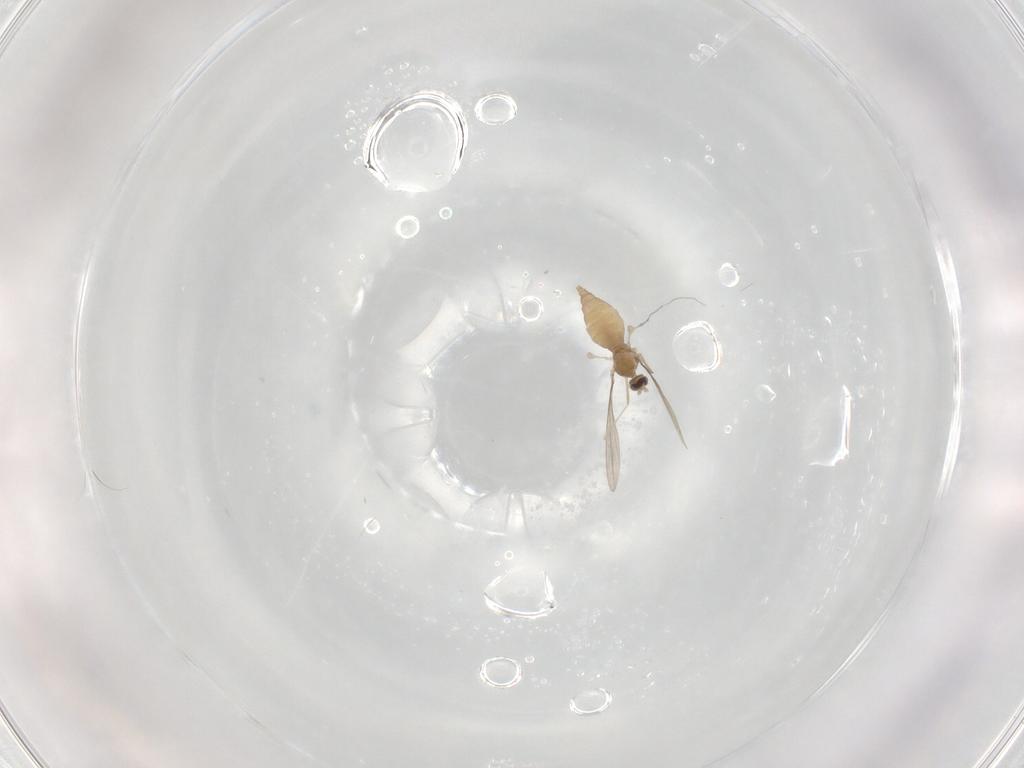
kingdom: Animalia
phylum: Arthropoda
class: Insecta
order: Diptera
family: Cecidomyiidae
